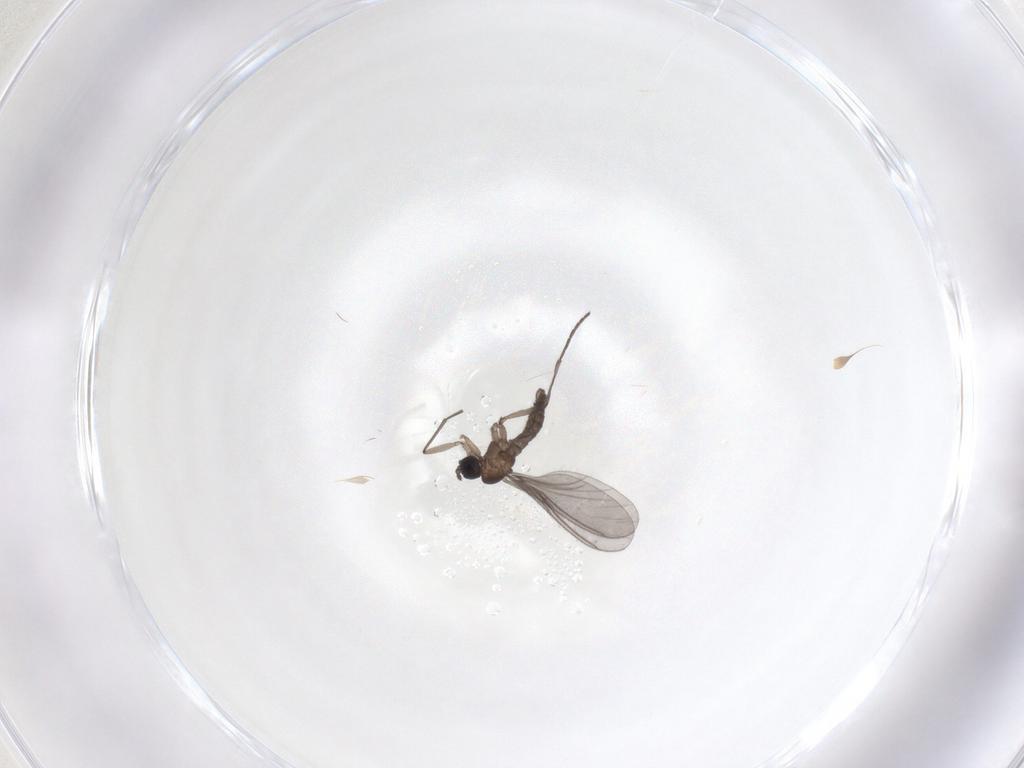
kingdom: Animalia
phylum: Arthropoda
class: Insecta
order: Diptera
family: Sciaridae
